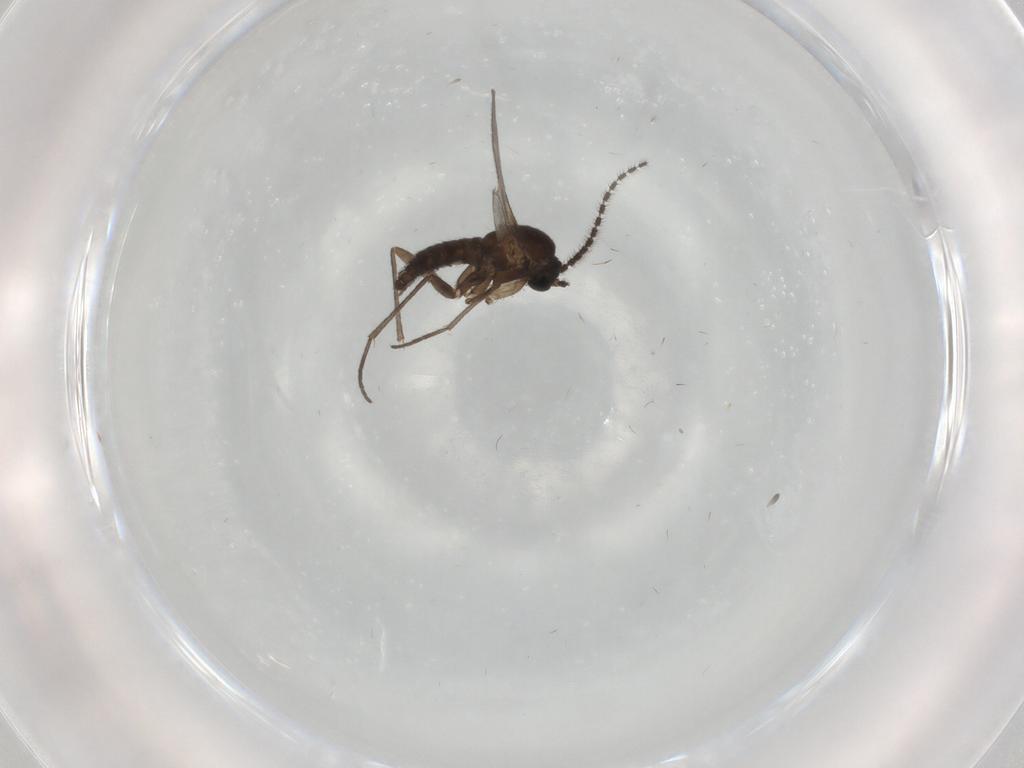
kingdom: Animalia
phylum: Arthropoda
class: Insecta
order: Diptera
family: Sciaridae
